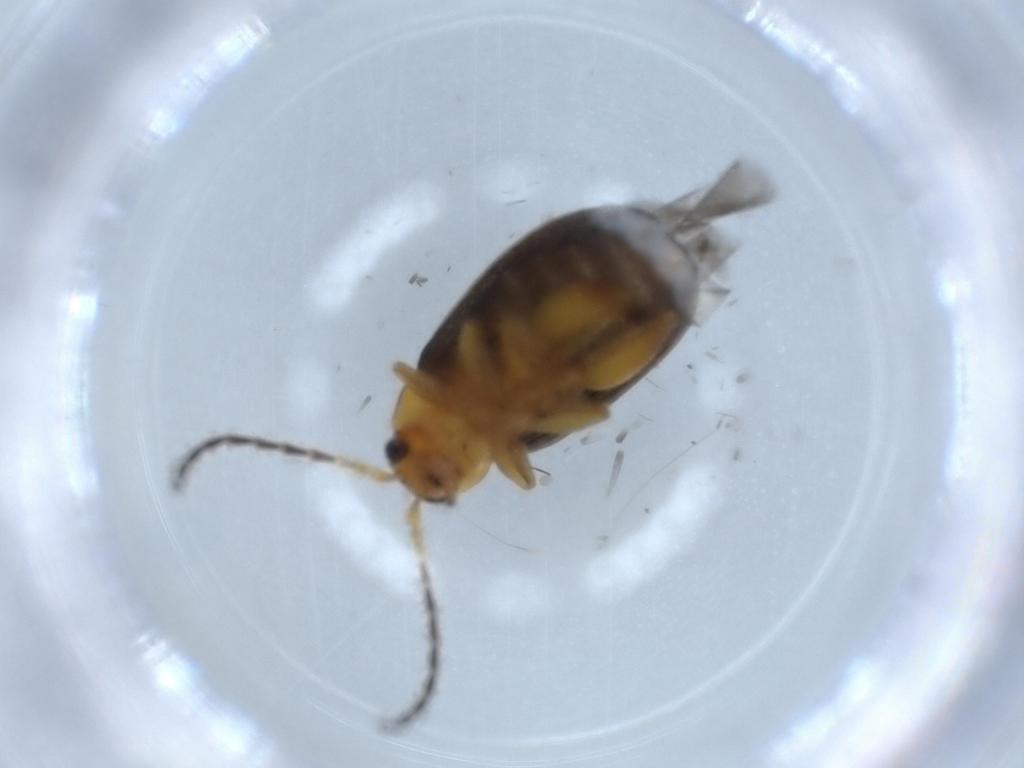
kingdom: Animalia
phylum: Arthropoda
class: Insecta
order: Coleoptera
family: Chrysomelidae
